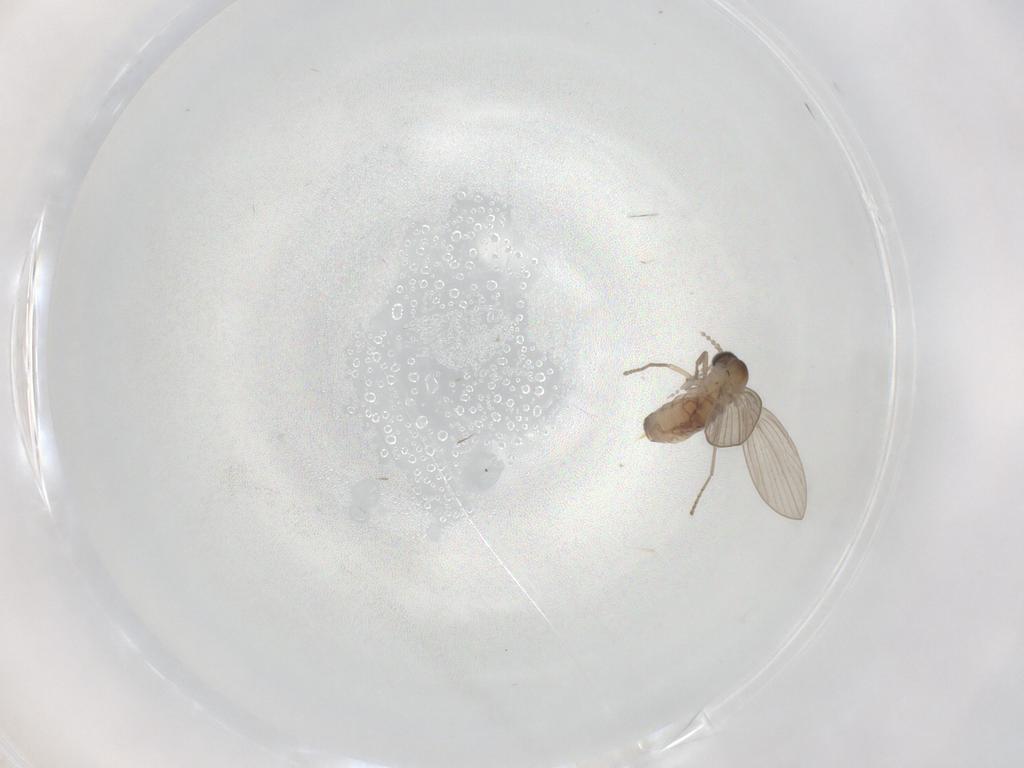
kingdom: Animalia
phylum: Arthropoda
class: Insecta
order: Diptera
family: Psychodidae
